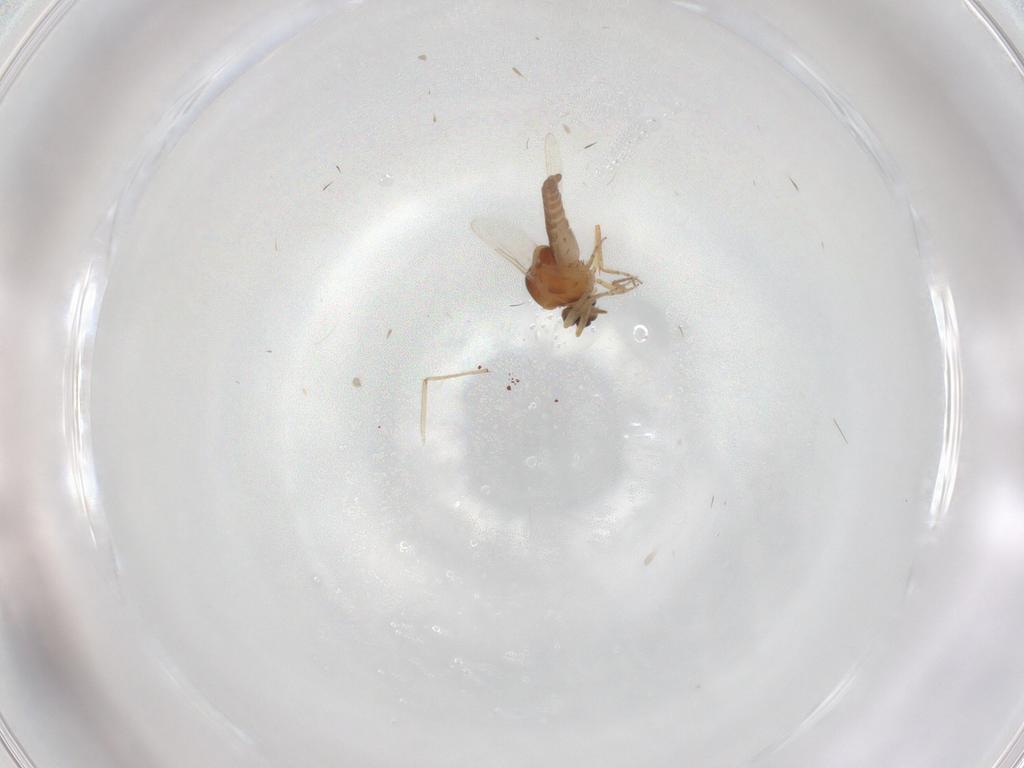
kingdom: Animalia
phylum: Arthropoda
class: Insecta
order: Diptera
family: Ceratopogonidae
